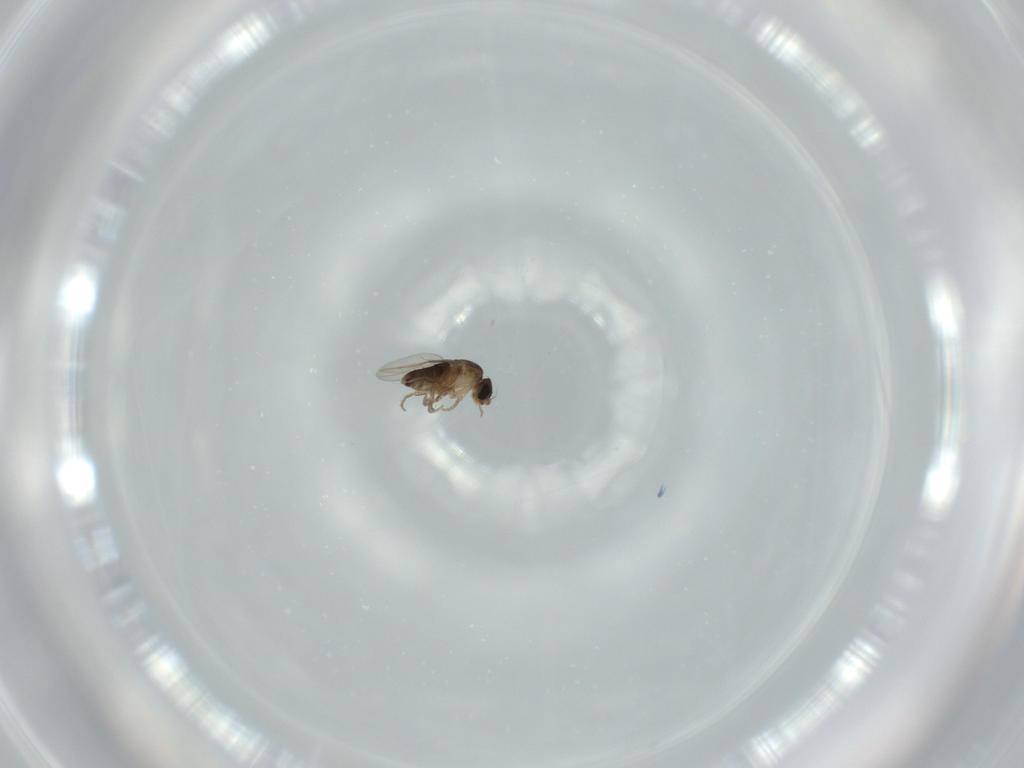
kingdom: Animalia
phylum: Arthropoda
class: Insecta
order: Diptera
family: Phoridae
